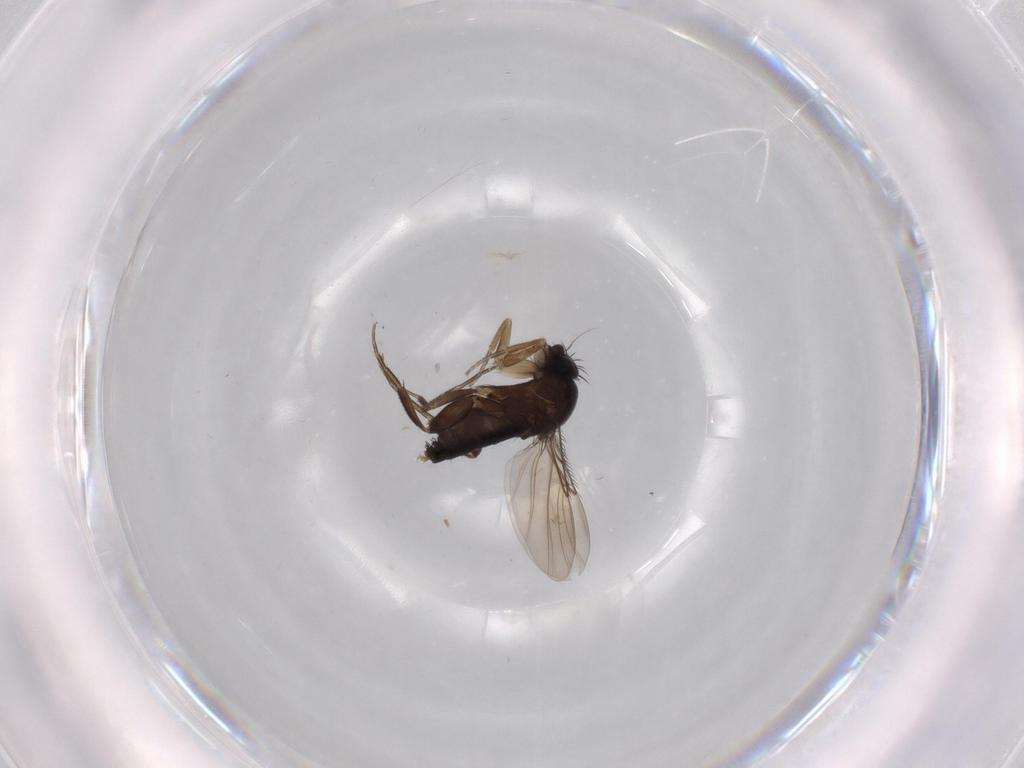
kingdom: Animalia
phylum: Arthropoda
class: Insecta
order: Diptera
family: Phoridae
